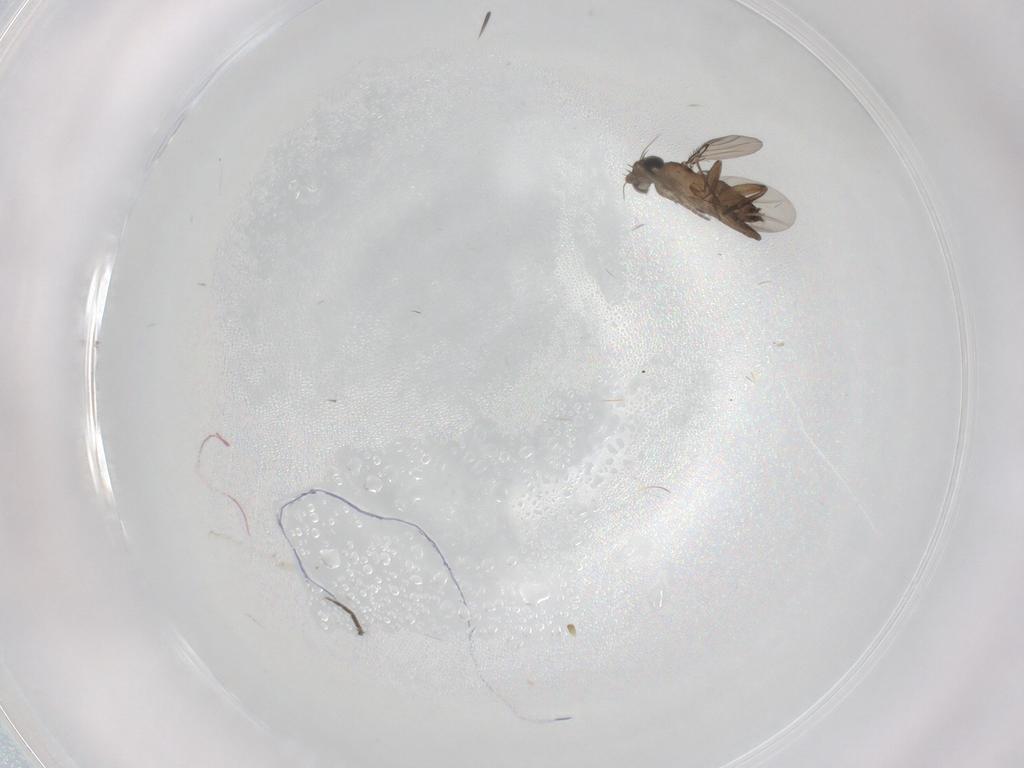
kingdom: Animalia
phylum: Arthropoda
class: Insecta
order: Diptera
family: Phoridae
